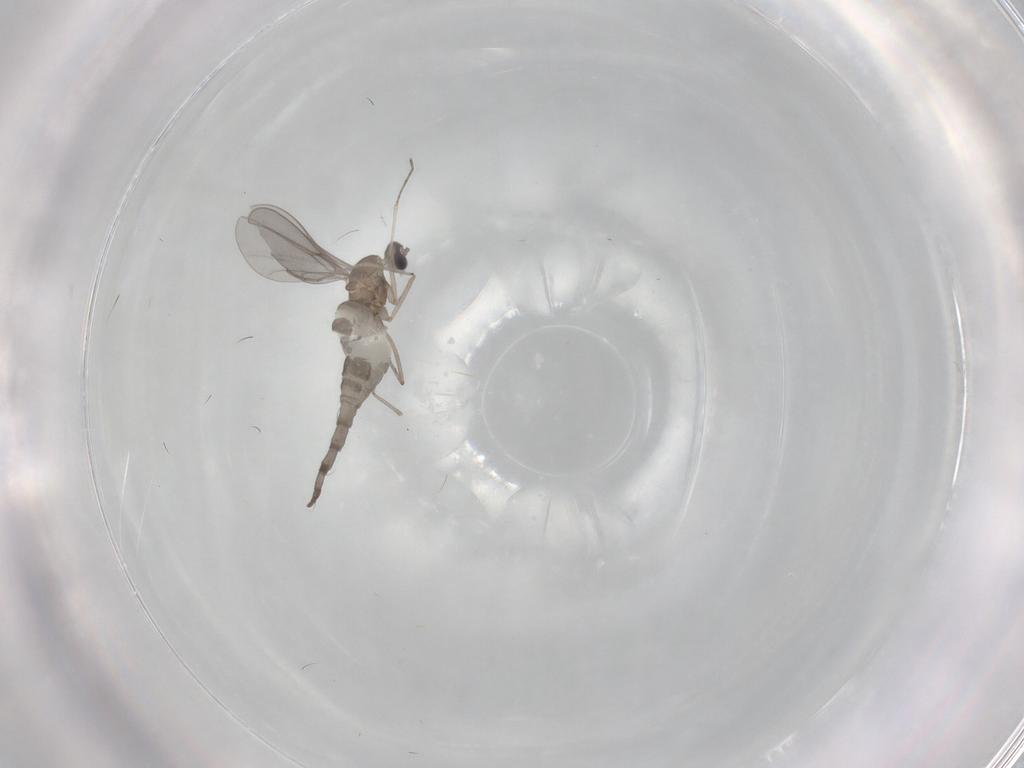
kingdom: Animalia
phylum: Arthropoda
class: Insecta
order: Diptera
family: Cecidomyiidae
